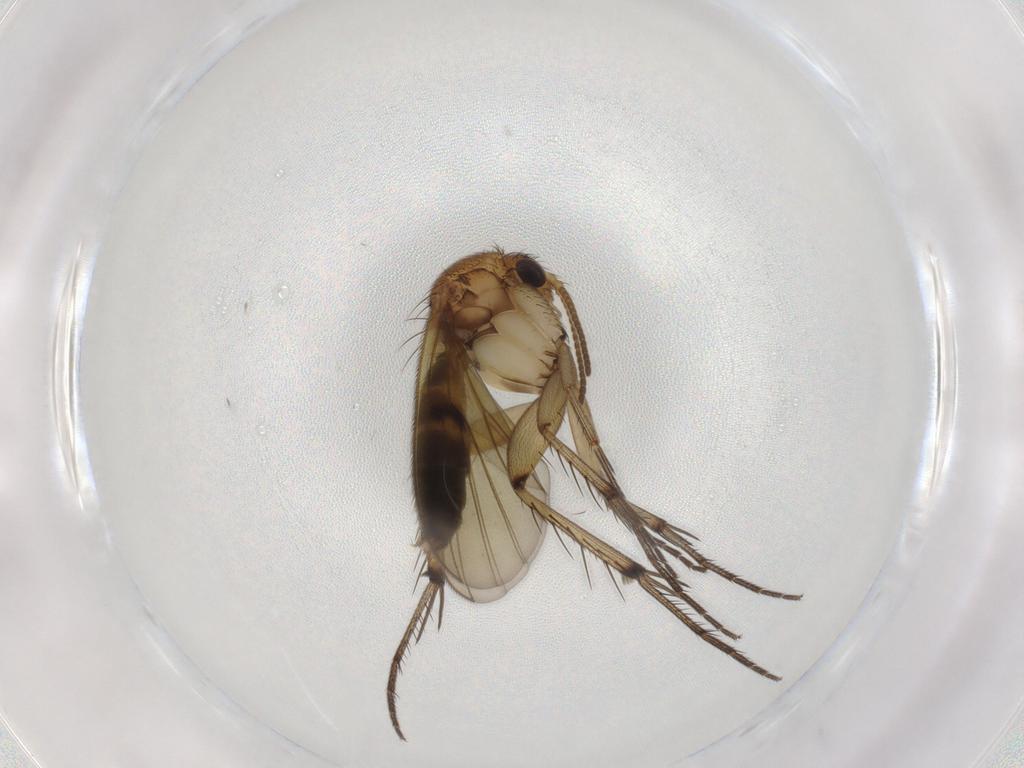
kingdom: Animalia
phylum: Arthropoda
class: Insecta
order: Diptera
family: Mycetophilidae
